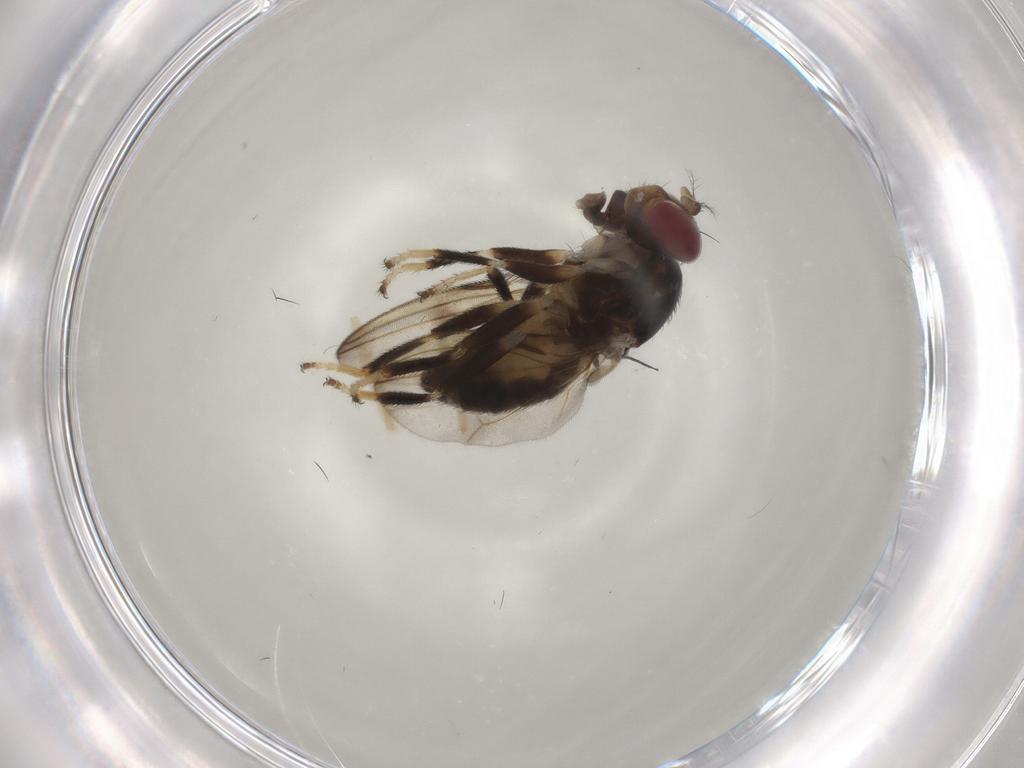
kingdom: Animalia
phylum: Arthropoda
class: Insecta
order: Diptera
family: Periscelididae
